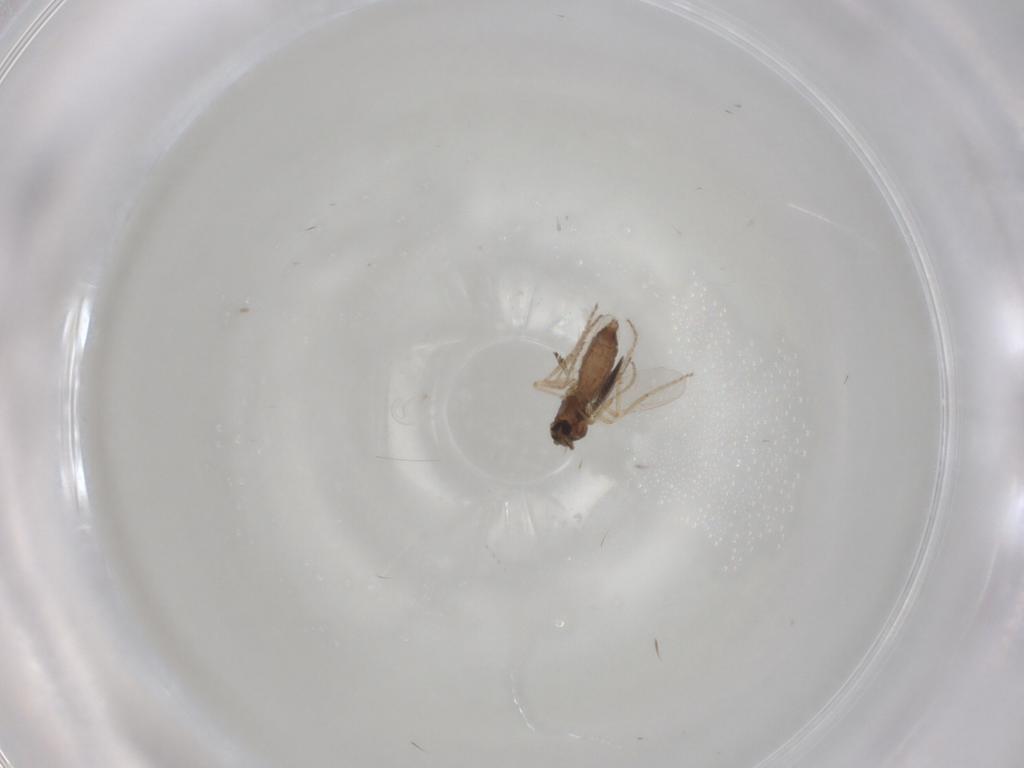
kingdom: Animalia
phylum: Arthropoda
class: Insecta
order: Diptera
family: Ceratopogonidae
